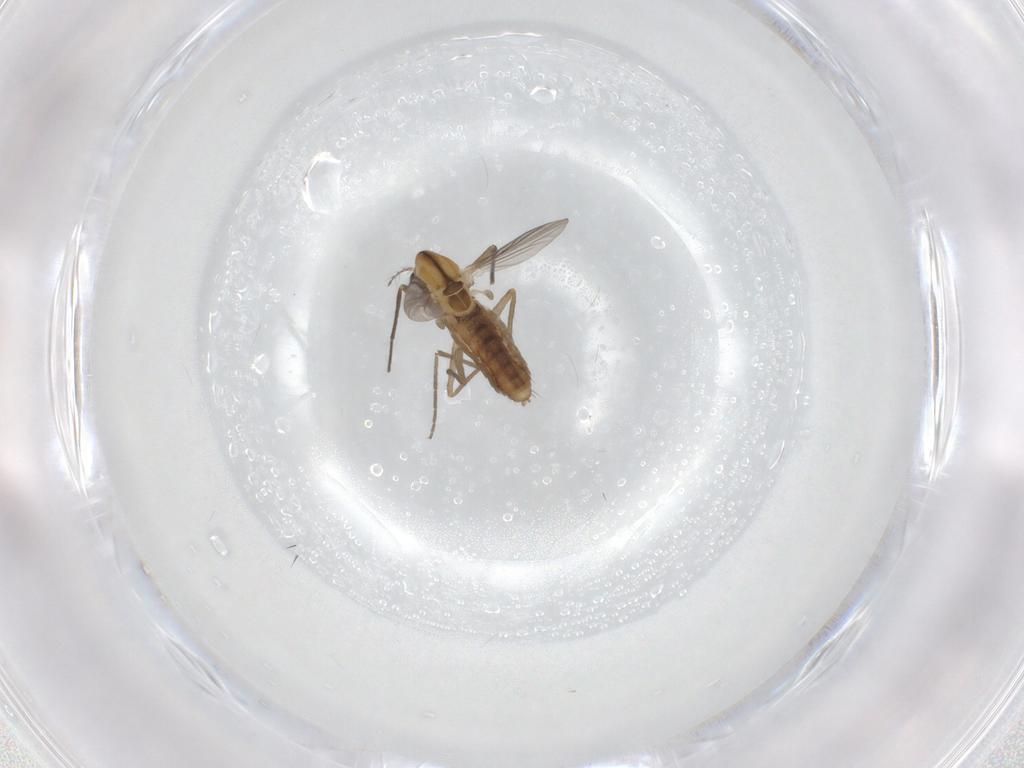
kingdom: Animalia
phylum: Arthropoda
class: Insecta
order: Diptera
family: Chironomidae
